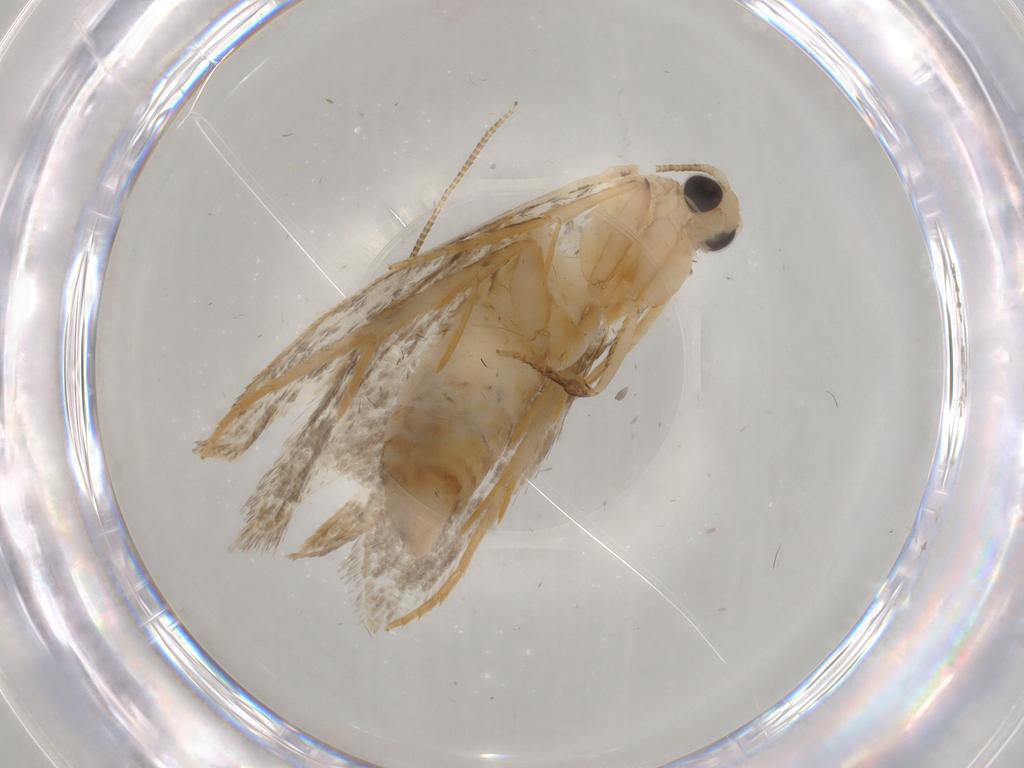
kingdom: Animalia
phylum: Arthropoda
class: Insecta
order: Lepidoptera
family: Tineidae
